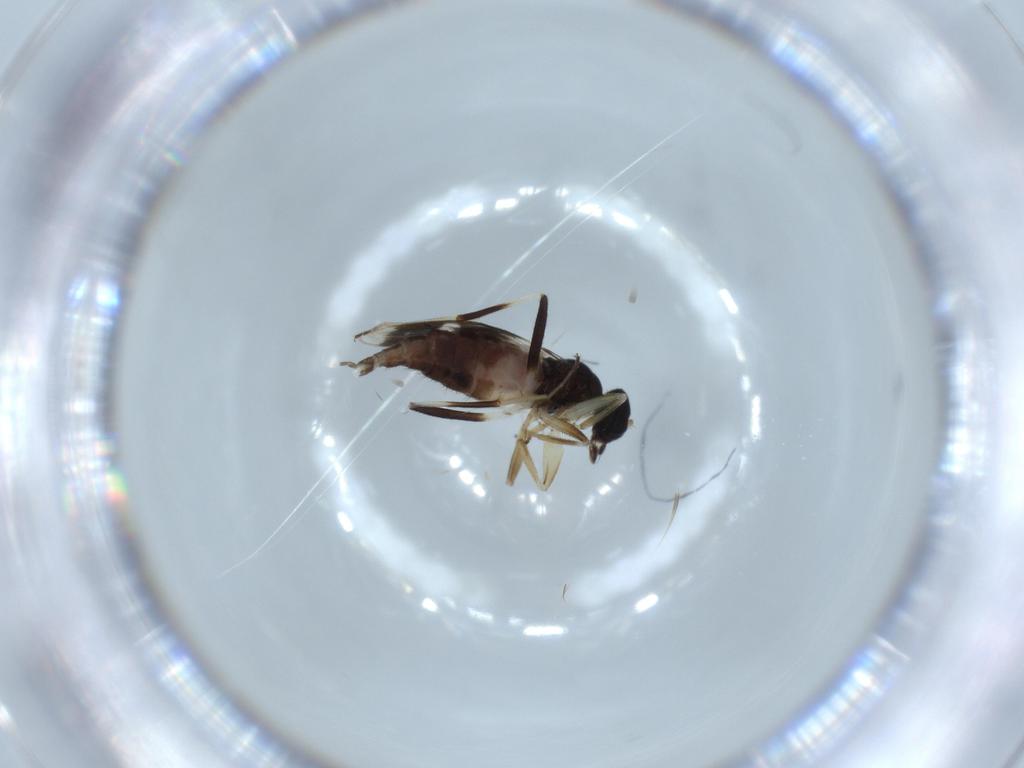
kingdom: Animalia
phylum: Arthropoda
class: Insecta
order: Diptera
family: Hybotidae
